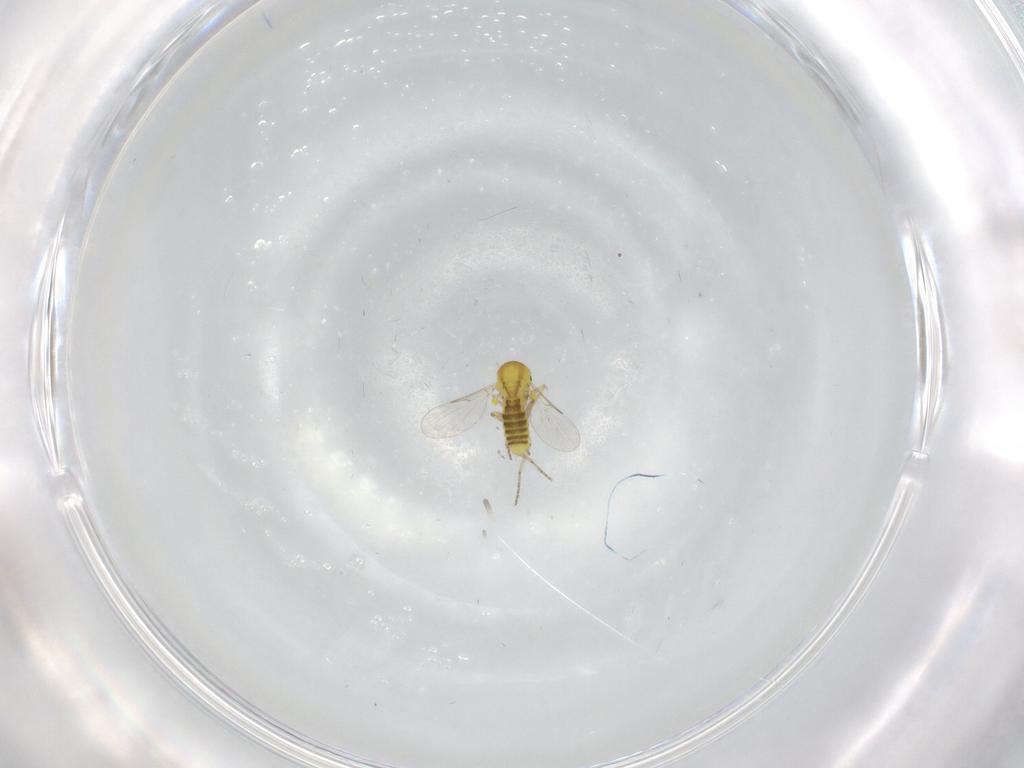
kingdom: Animalia
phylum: Arthropoda
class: Insecta
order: Diptera
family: Ceratopogonidae
